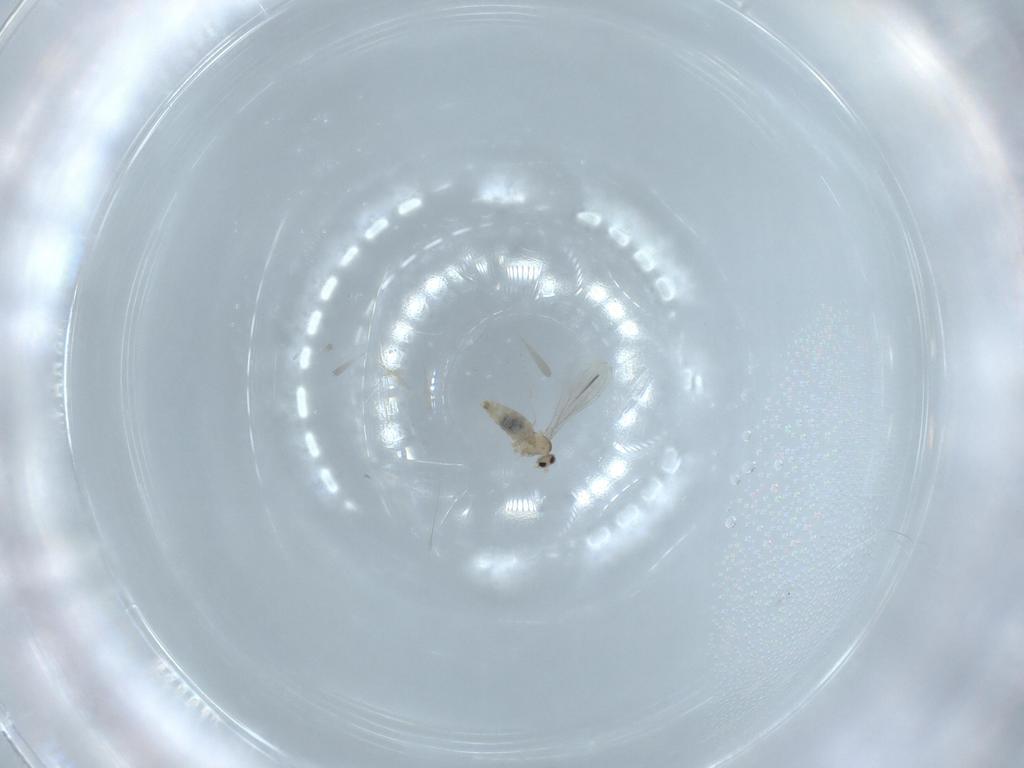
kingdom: Animalia
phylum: Arthropoda
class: Insecta
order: Diptera
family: Cecidomyiidae
